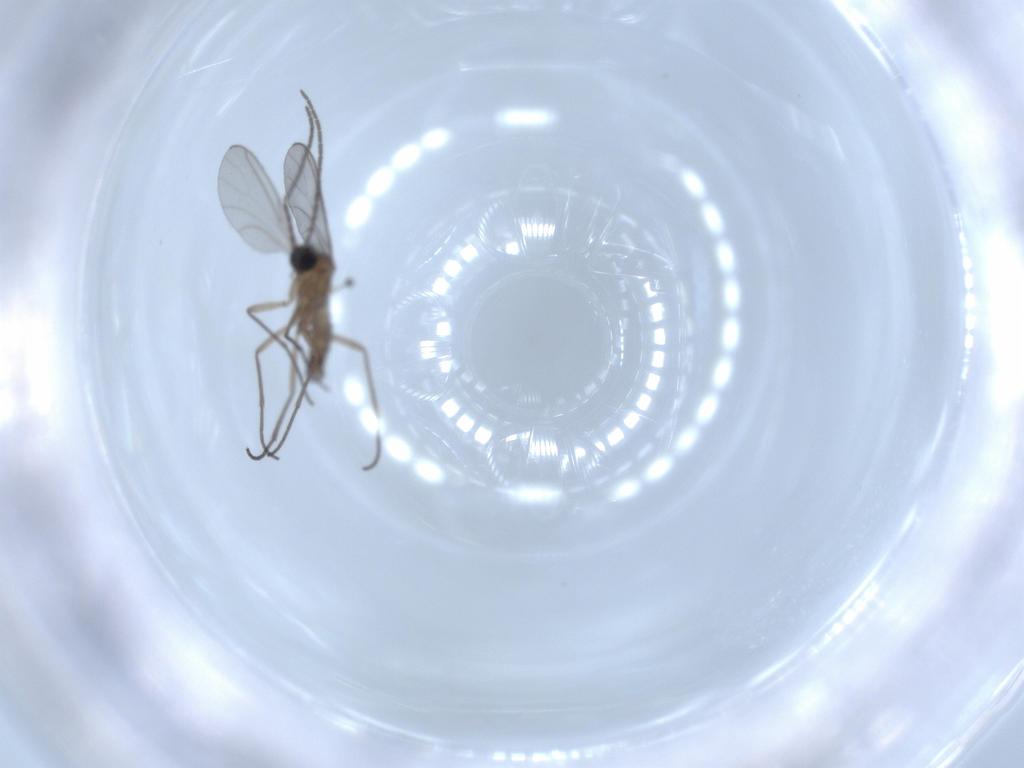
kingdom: Animalia
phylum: Arthropoda
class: Insecta
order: Diptera
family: Sciaridae
